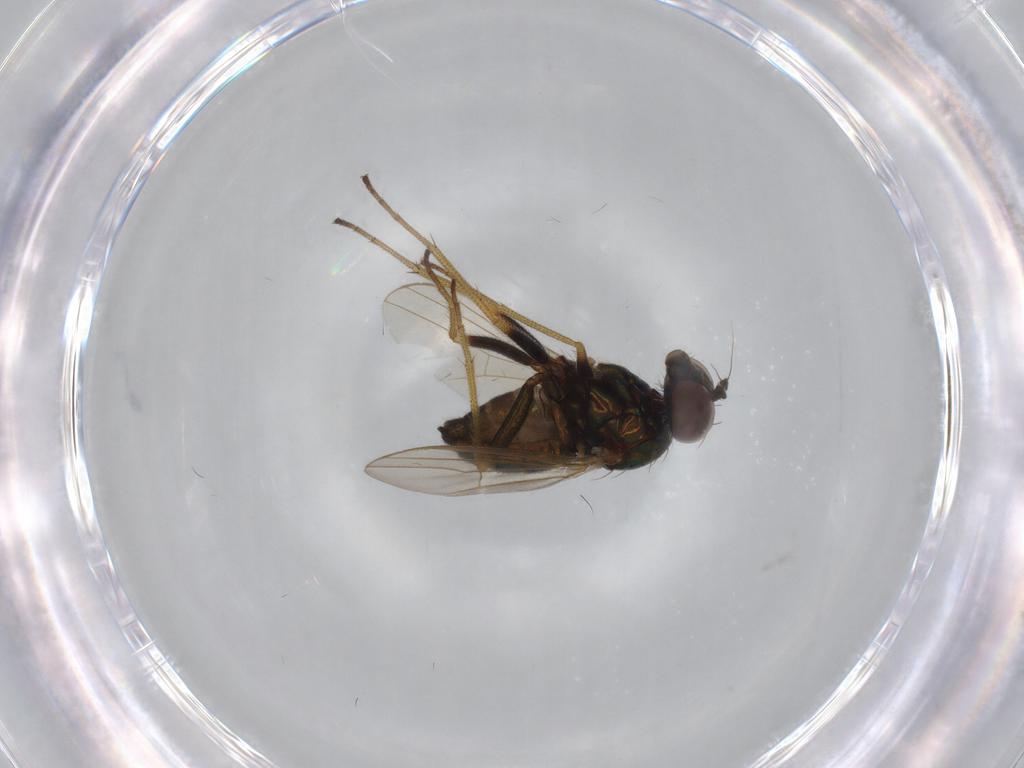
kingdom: Animalia
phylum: Arthropoda
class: Insecta
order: Diptera
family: Dolichopodidae
